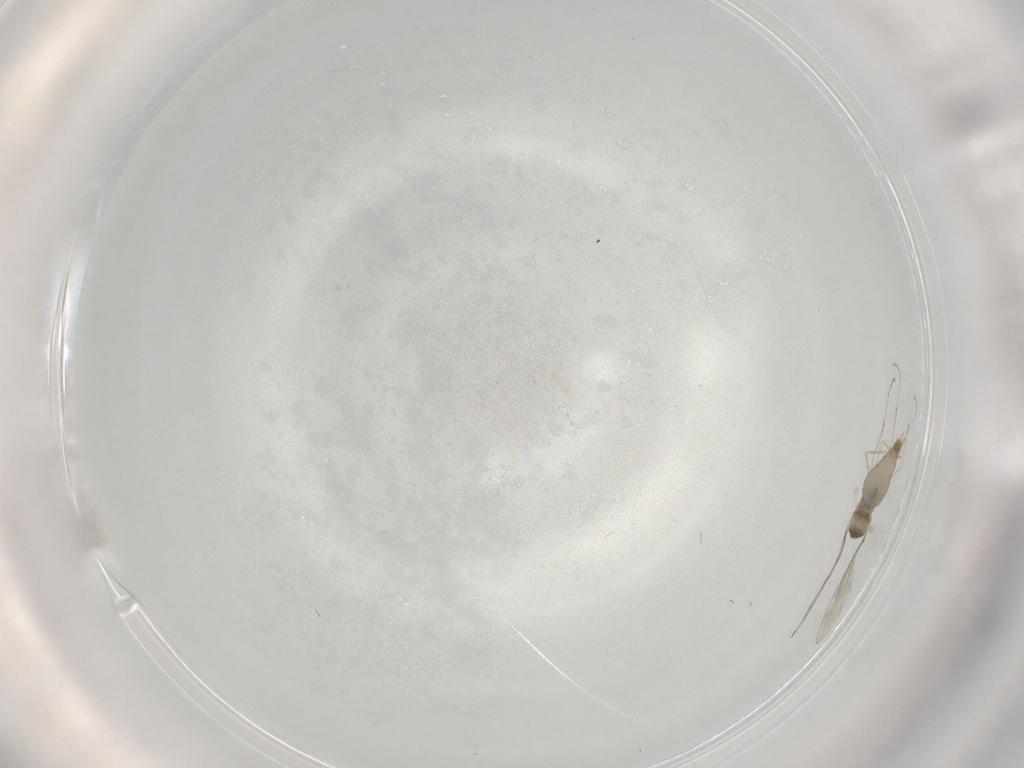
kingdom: Animalia
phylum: Arthropoda
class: Insecta
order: Diptera
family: Cecidomyiidae
